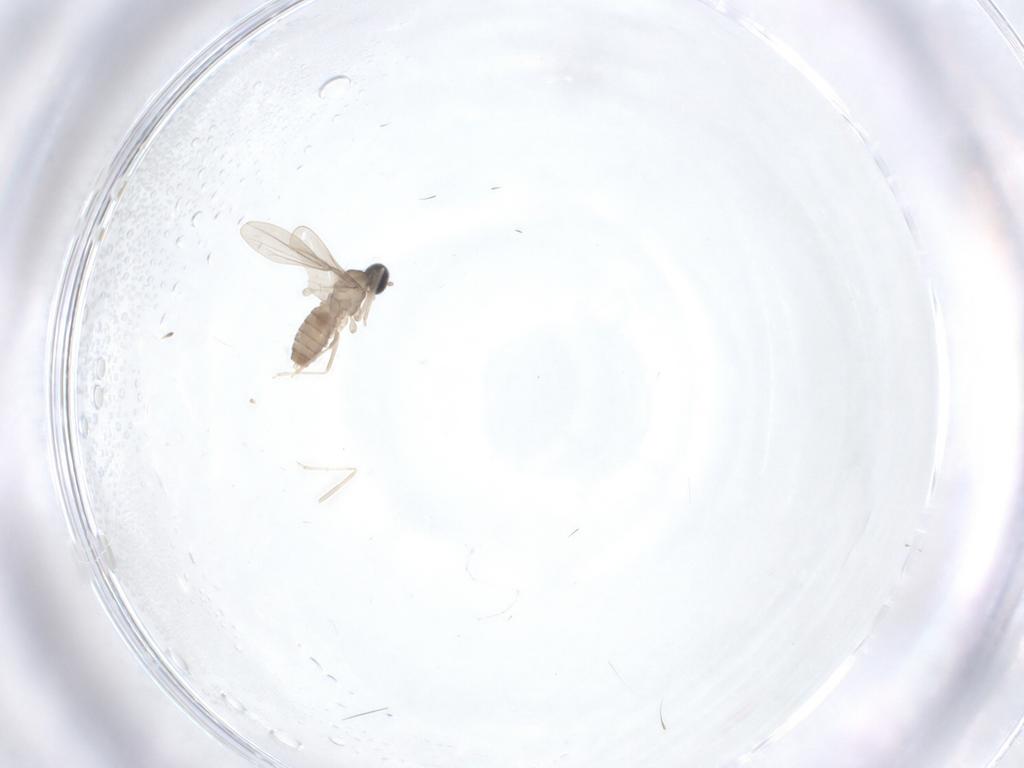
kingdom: Animalia
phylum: Arthropoda
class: Insecta
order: Diptera
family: Cecidomyiidae
